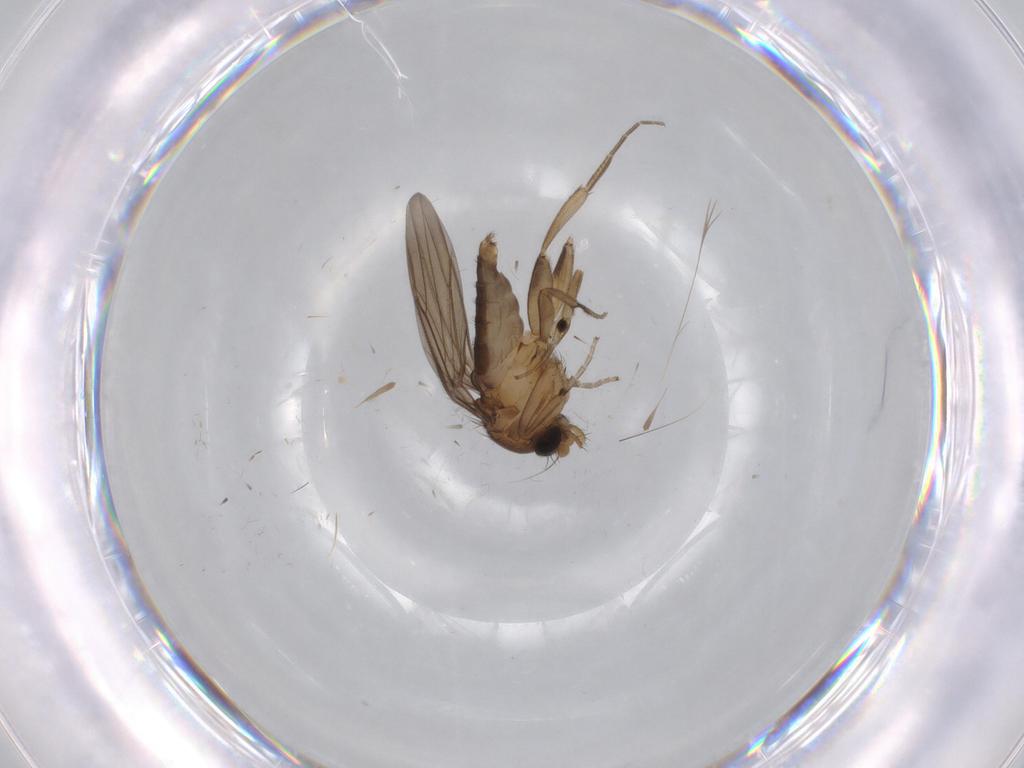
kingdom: Animalia
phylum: Arthropoda
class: Insecta
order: Diptera
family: Phoridae
